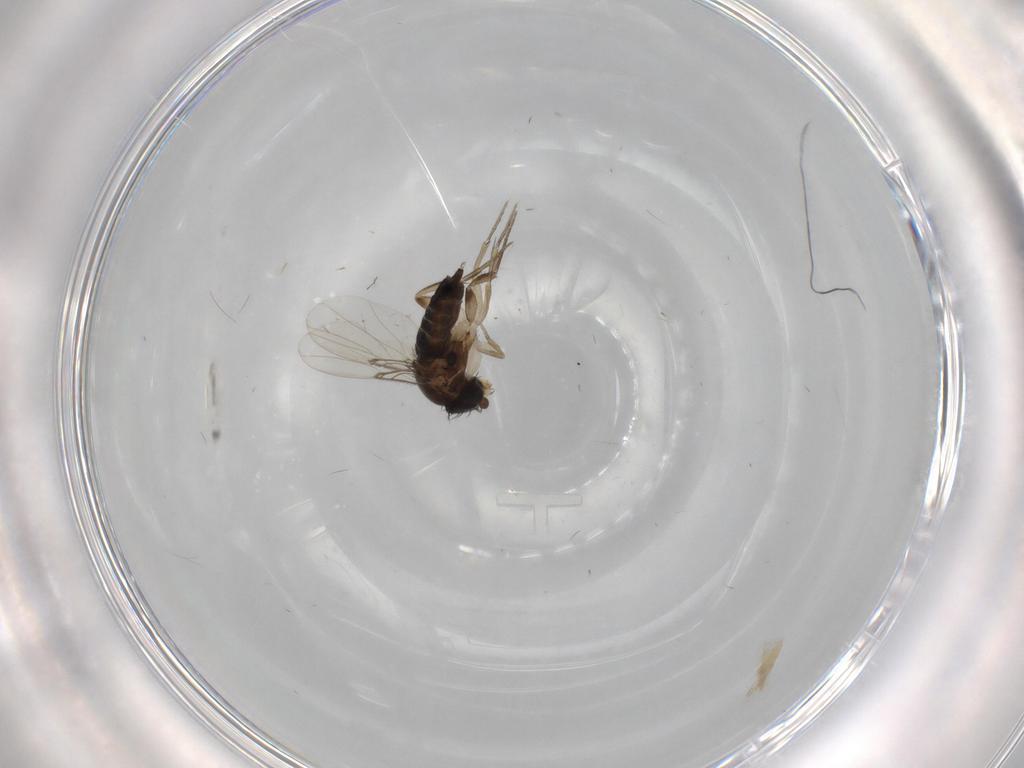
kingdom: Animalia
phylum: Arthropoda
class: Insecta
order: Diptera
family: Phoridae
